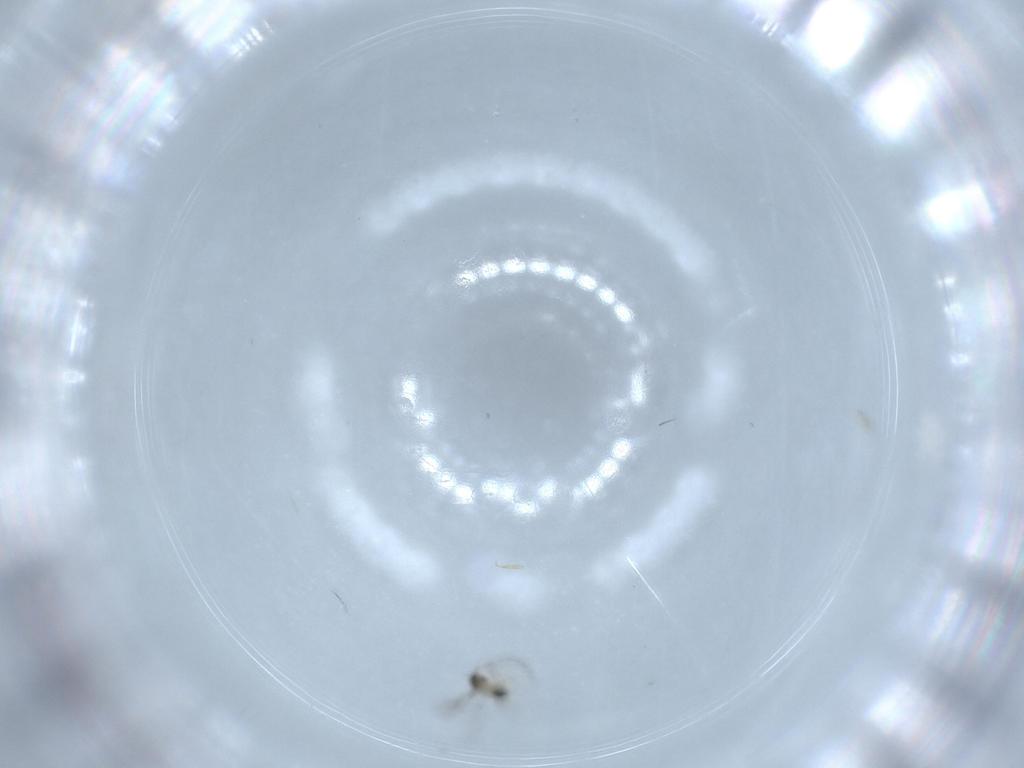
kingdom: Animalia
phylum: Arthropoda
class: Insecta
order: Hymenoptera
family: Mymaridae
